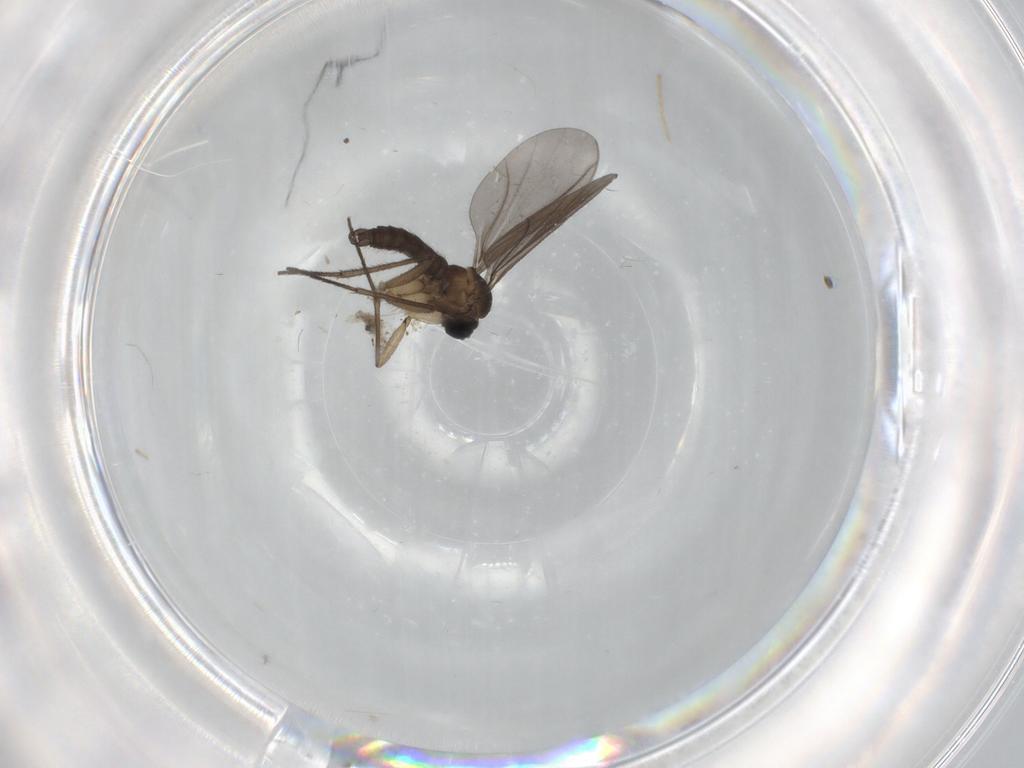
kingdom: Animalia
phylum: Arthropoda
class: Insecta
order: Diptera
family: Sciaridae
